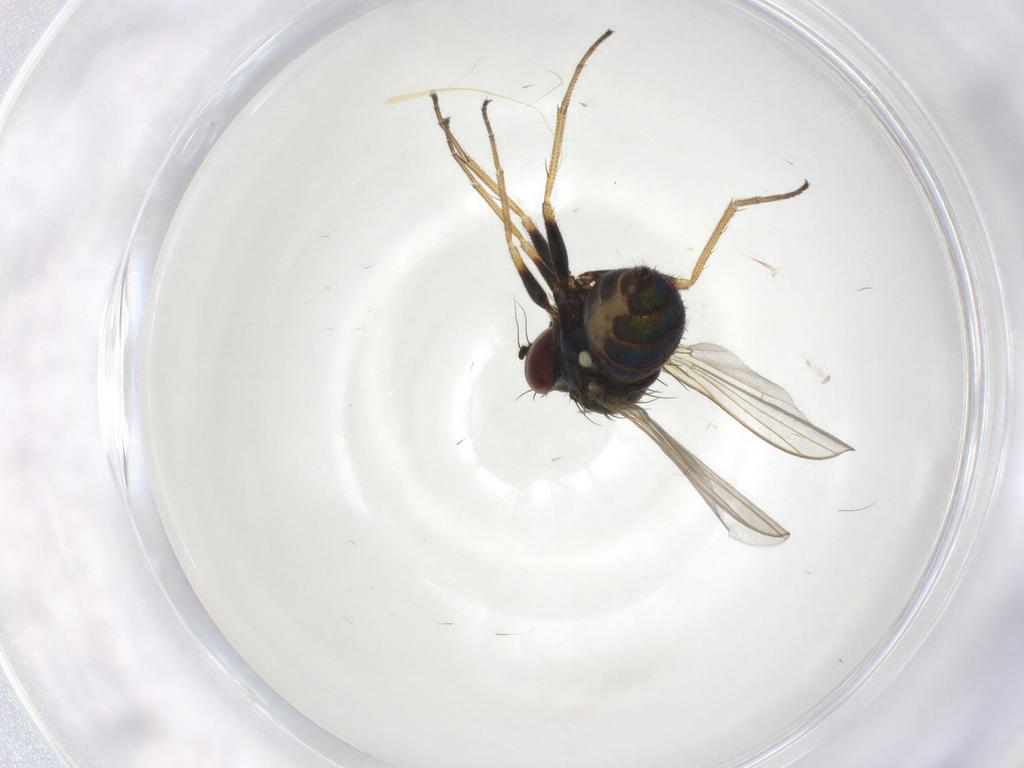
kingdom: Animalia
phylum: Arthropoda
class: Insecta
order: Diptera
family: Dolichopodidae
